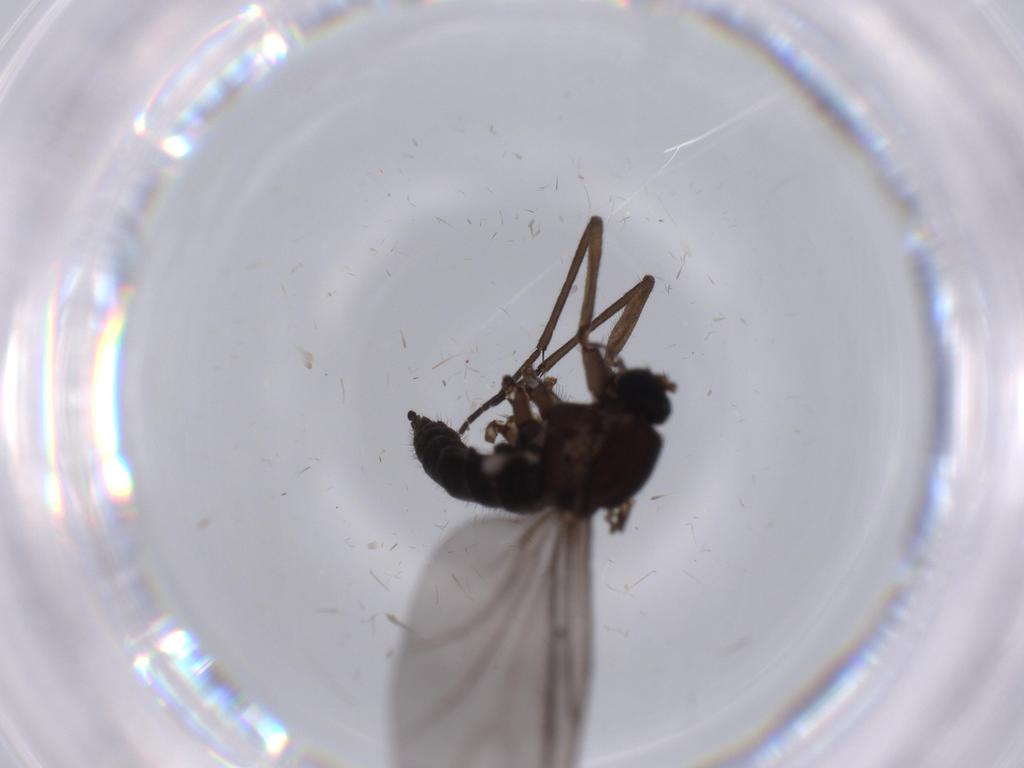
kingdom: Animalia
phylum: Arthropoda
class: Insecta
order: Diptera
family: Sciaridae
